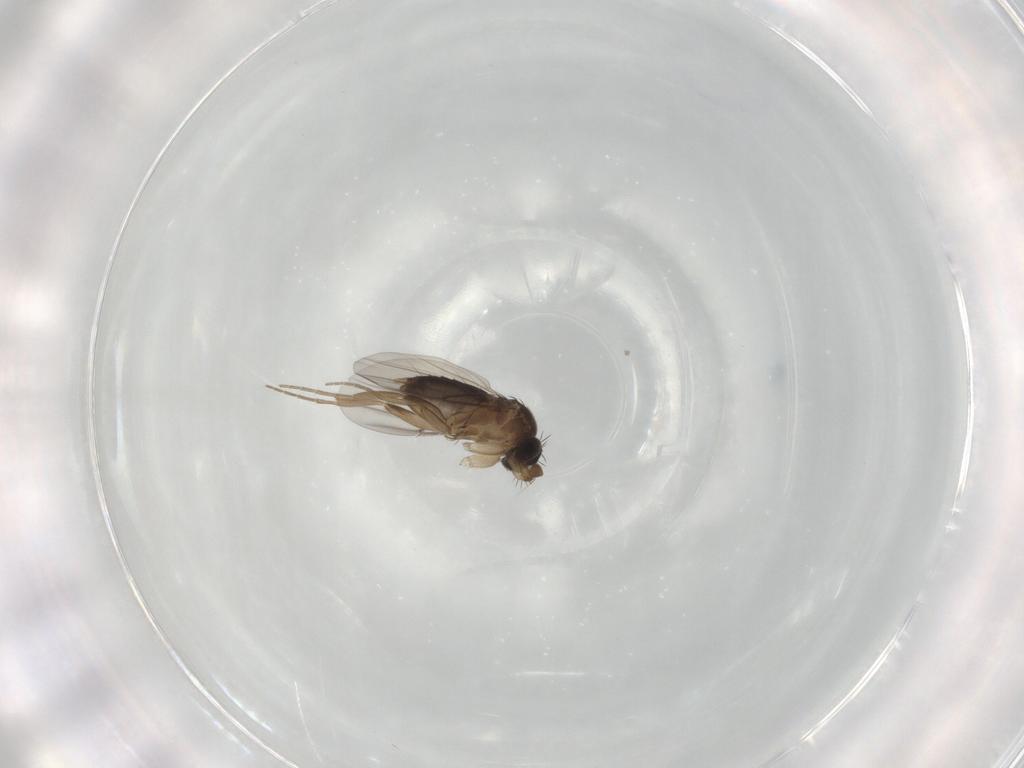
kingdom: Animalia
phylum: Arthropoda
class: Insecta
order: Diptera
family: Phoridae
